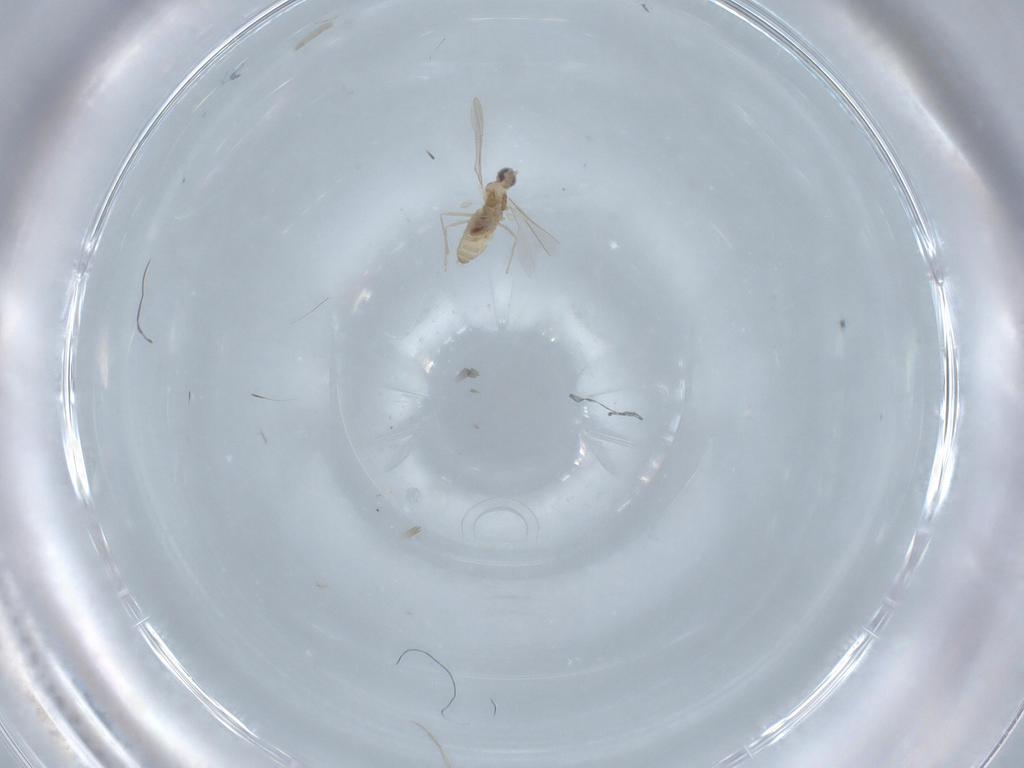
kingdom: Animalia
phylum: Arthropoda
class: Insecta
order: Diptera
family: Cecidomyiidae
